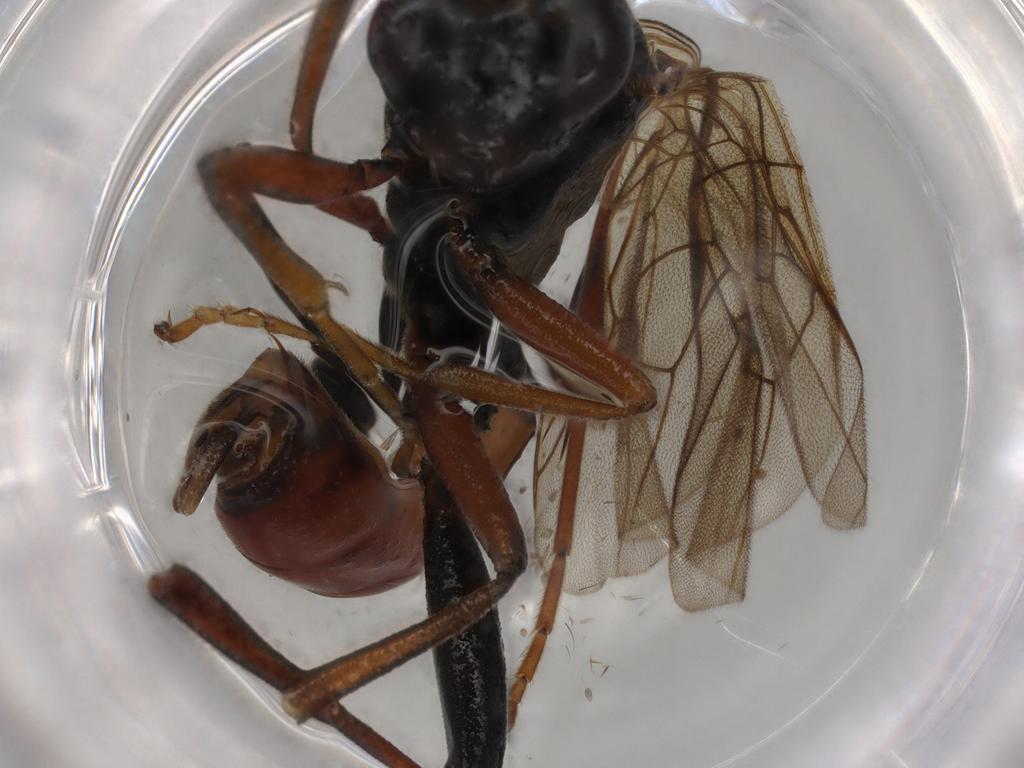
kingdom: Animalia
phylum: Arthropoda
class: Insecta
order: Hymenoptera
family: Ichneumonidae
